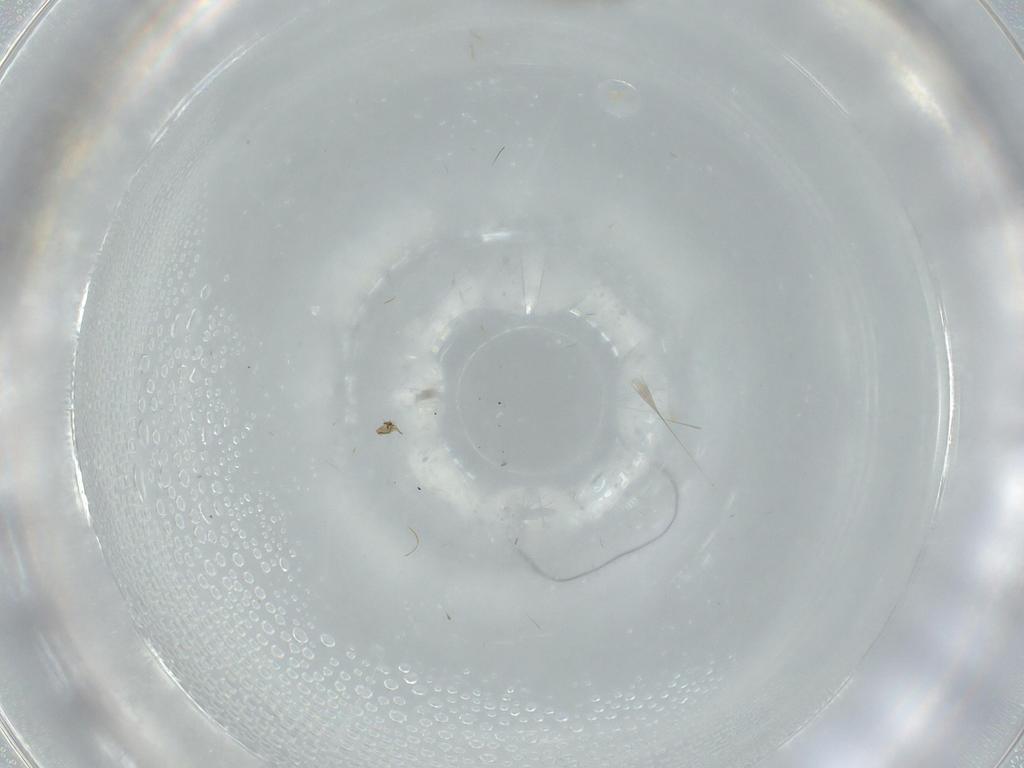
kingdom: Animalia
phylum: Arthropoda
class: Insecta
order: Diptera
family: Cecidomyiidae
